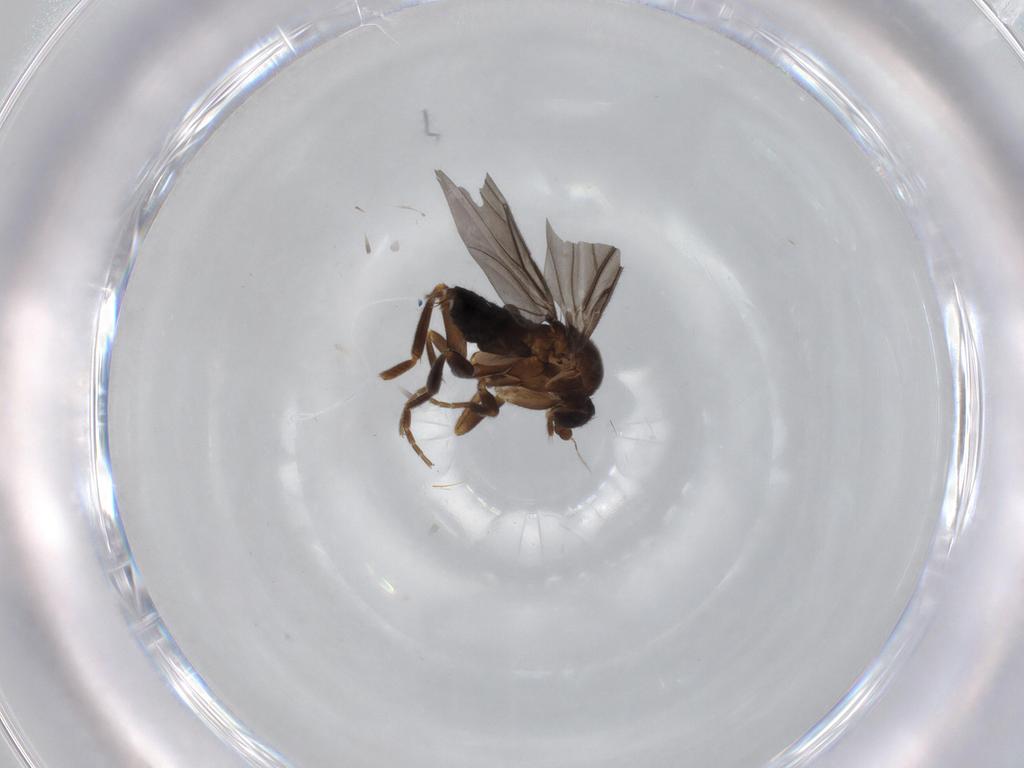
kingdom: Animalia
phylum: Arthropoda
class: Insecta
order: Diptera
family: Phoridae
